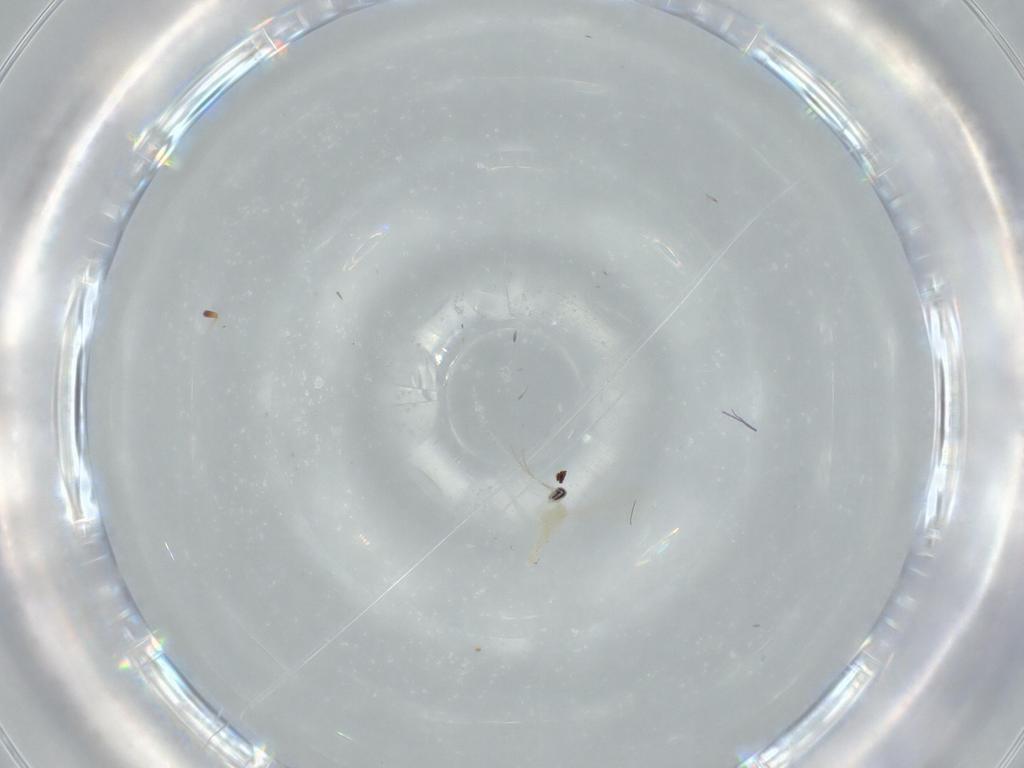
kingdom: Animalia
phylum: Arthropoda
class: Insecta
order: Diptera
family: Cecidomyiidae
